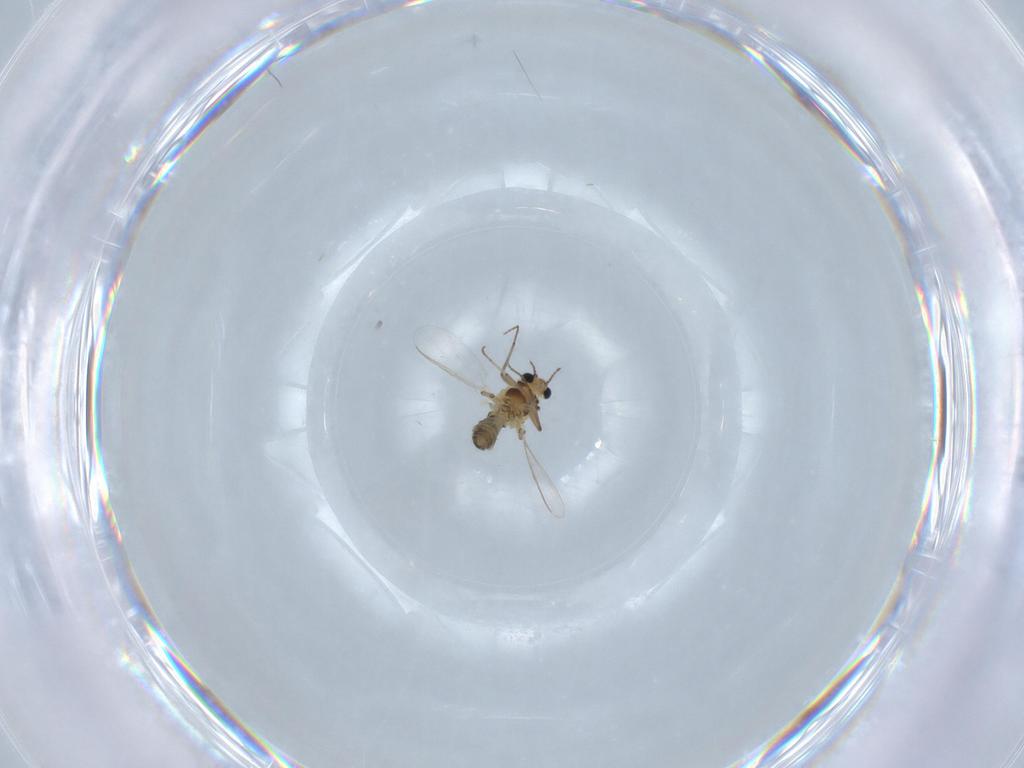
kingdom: Animalia
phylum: Arthropoda
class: Insecta
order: Diptera
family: Chironomidae
